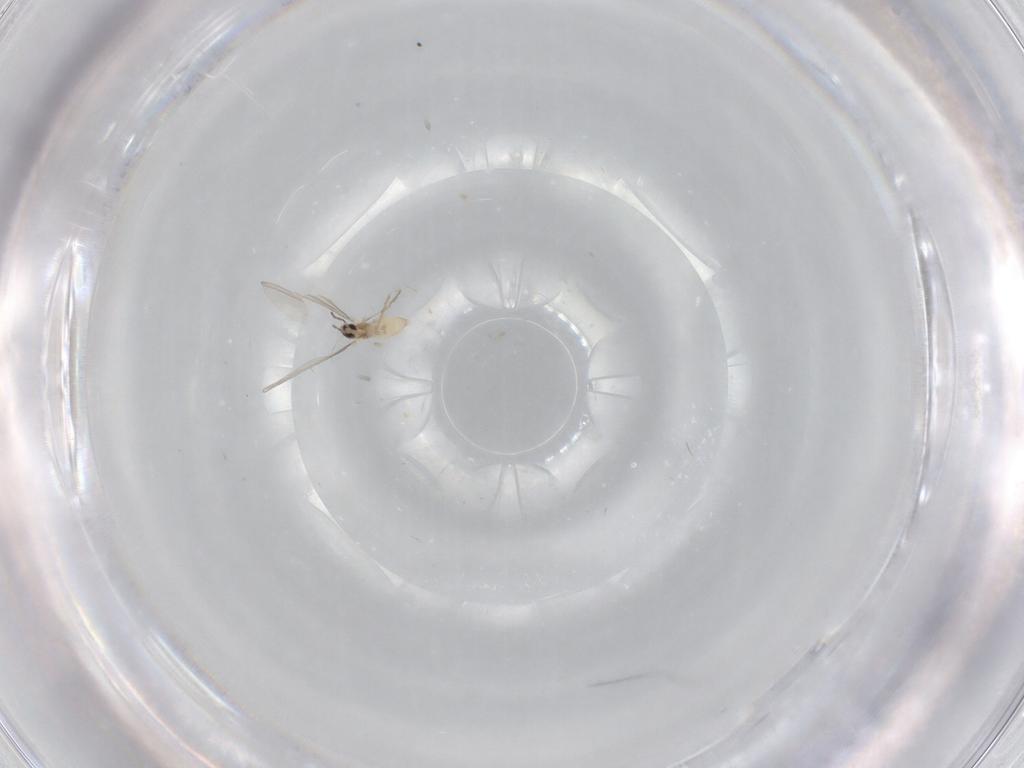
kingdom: Animalia
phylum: Arthropoda
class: Insecta
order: Diptera
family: Cecidomyiidae
